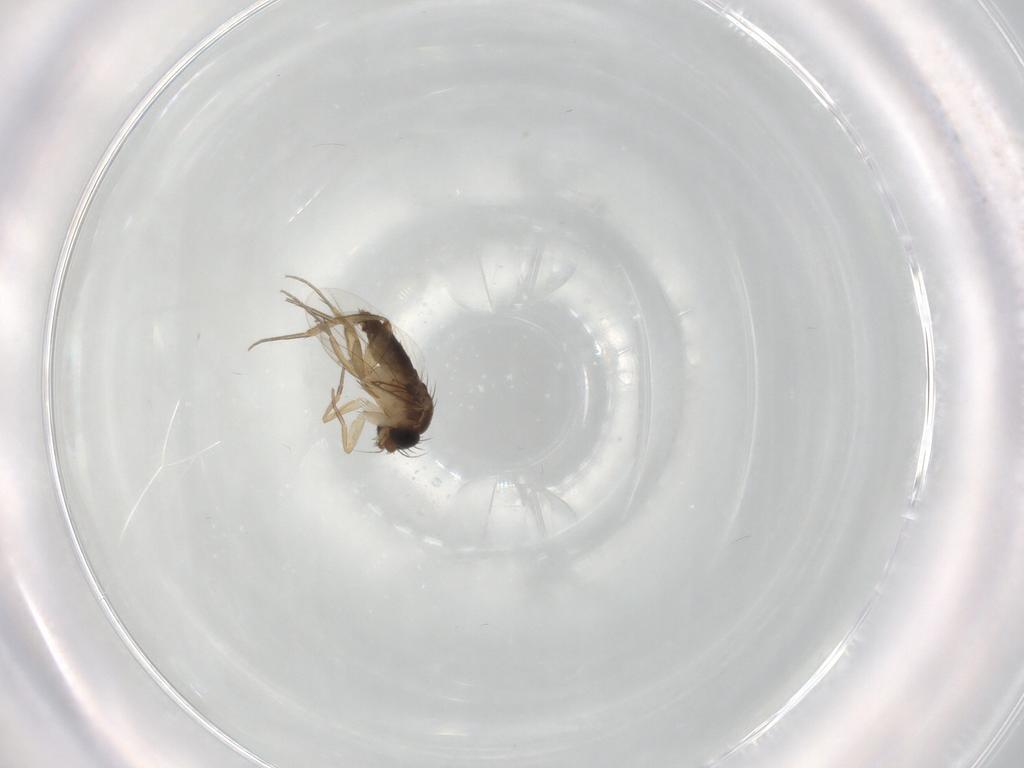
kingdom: Animalia
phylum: Arthropoda
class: Insecta
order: Diptera
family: Phoridae
